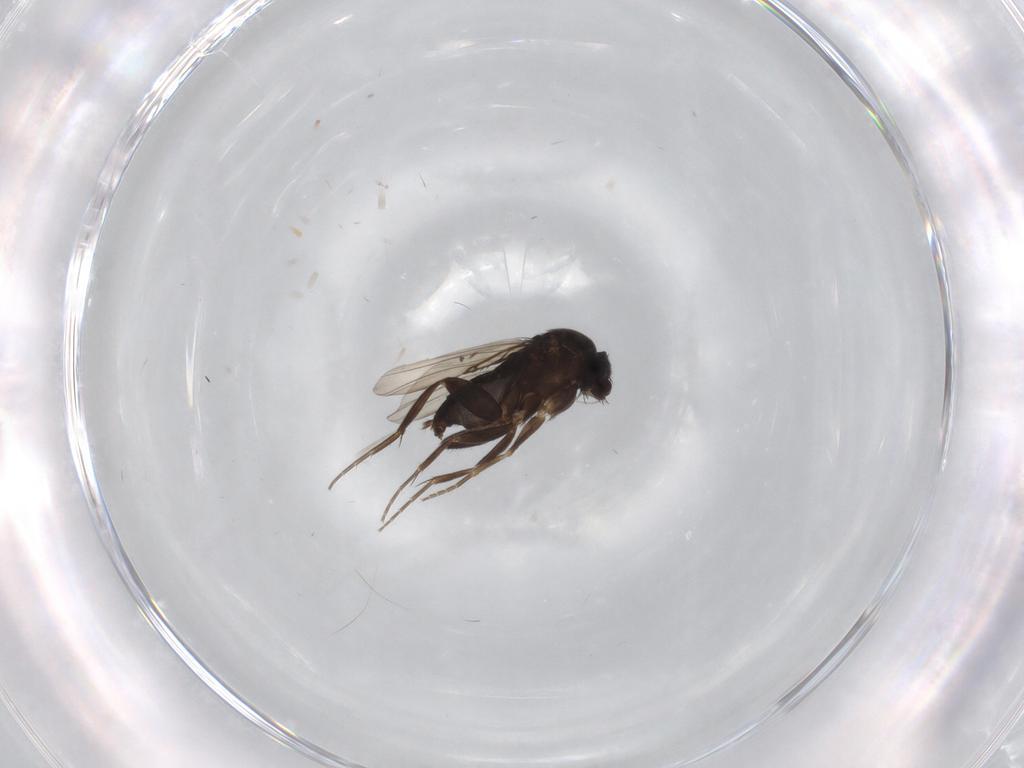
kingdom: Animalia
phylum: Arthropoda
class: Insecta
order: Diptera
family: Phoridae
